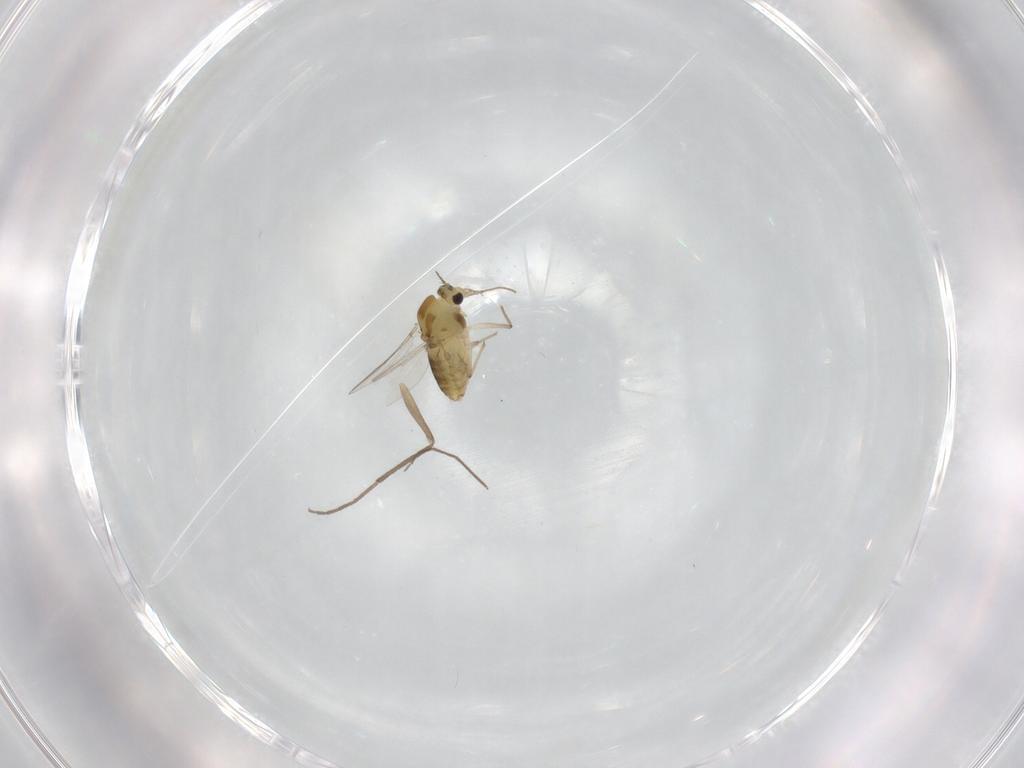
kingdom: Animalia
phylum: Arthropoda
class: Insecta
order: Diptera
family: Chironomidae
